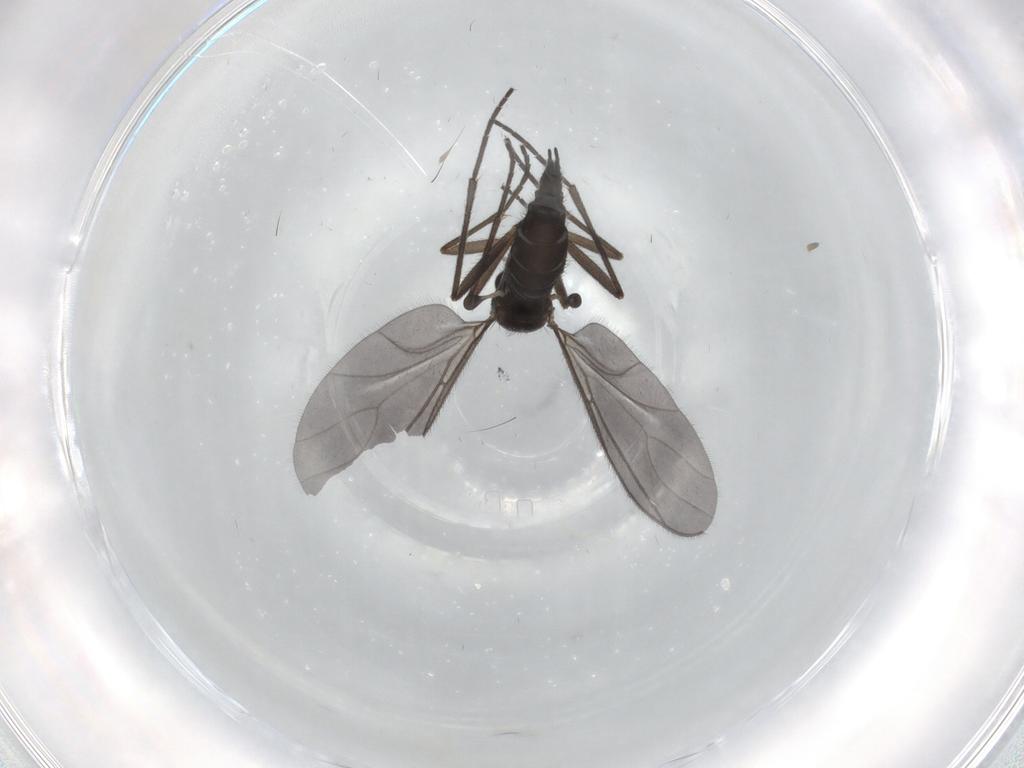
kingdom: Animalia
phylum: Arthropoda
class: Insecta
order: Diptera
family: Sciaridae
